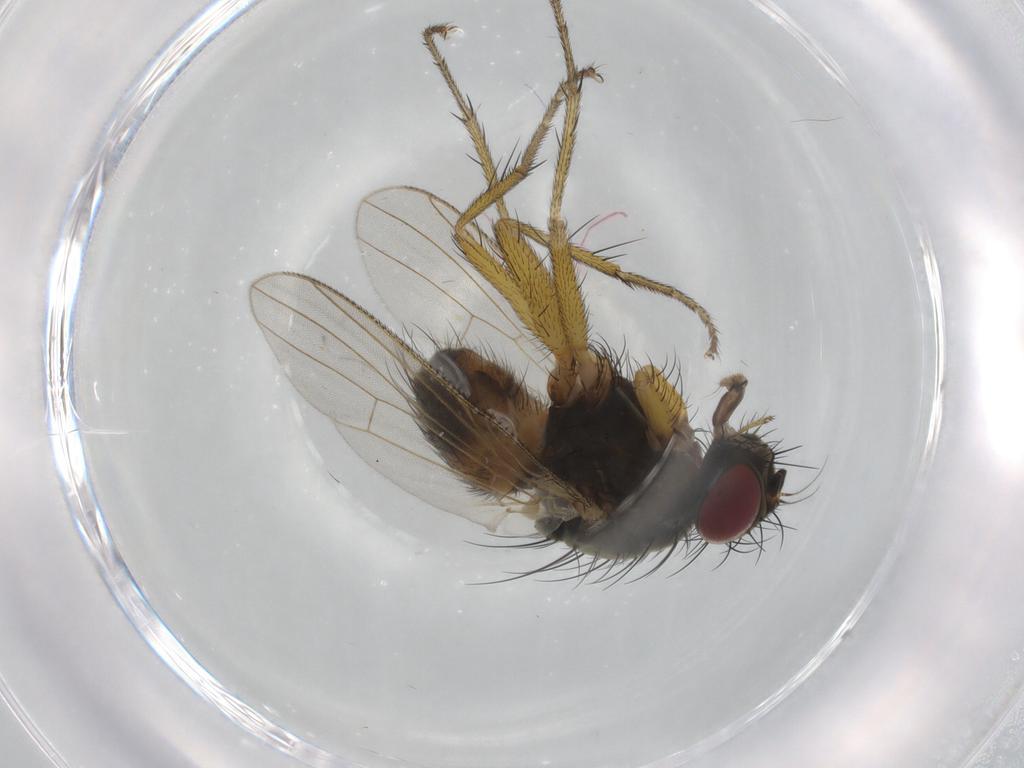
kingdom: Animalia
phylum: Arthropoda
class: Insecta
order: Diptera
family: Muscidae
